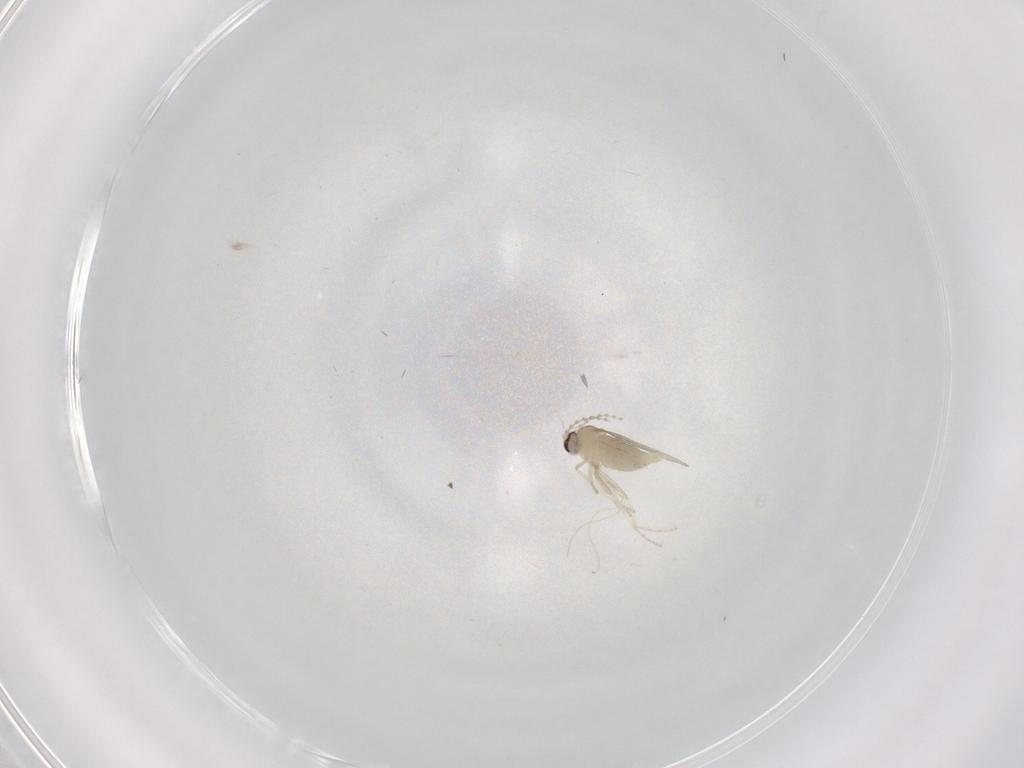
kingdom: Animalia
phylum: Arthropoda
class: Insecta
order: Diptera
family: Cecidomyiidae
